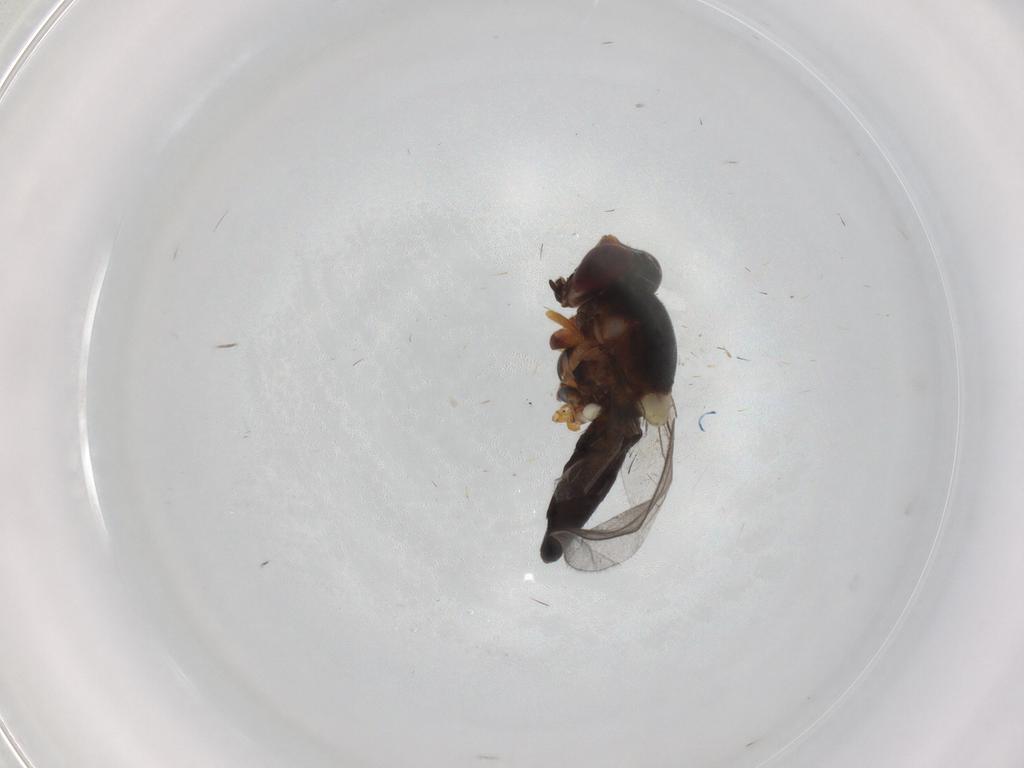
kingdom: Animalia
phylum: Arthropoda
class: Insecta
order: Diptera
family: Chloropidae
